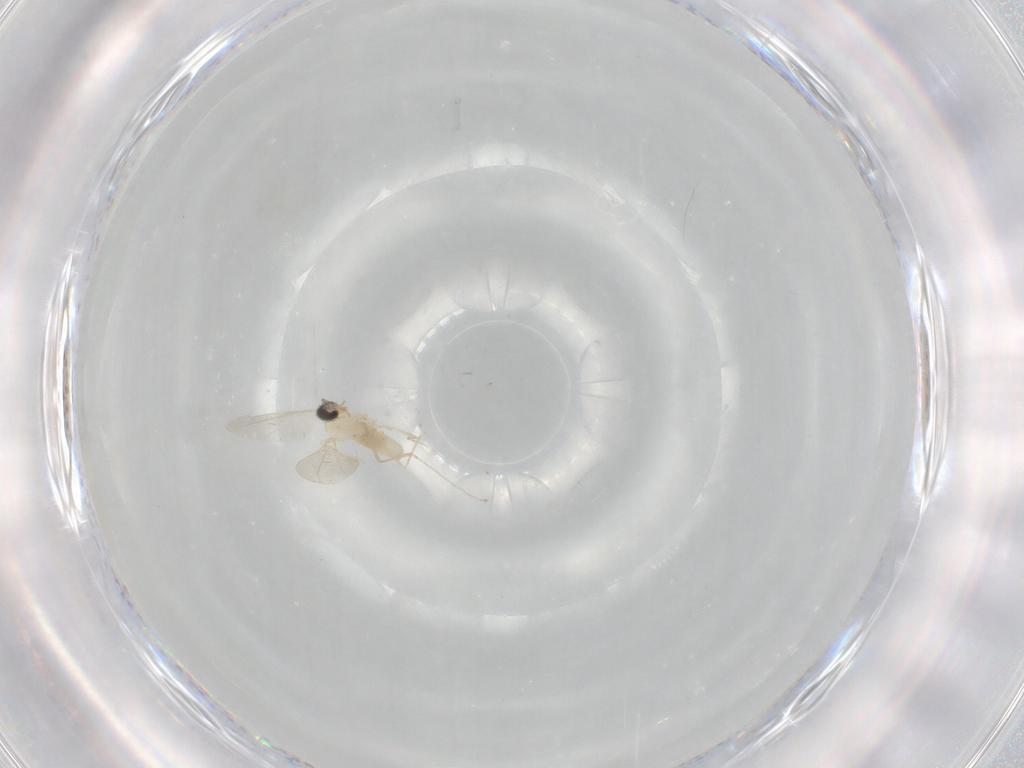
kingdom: Animalia
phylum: Arthropoda
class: Insecta
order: Diptera
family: Cecidomyiidae
